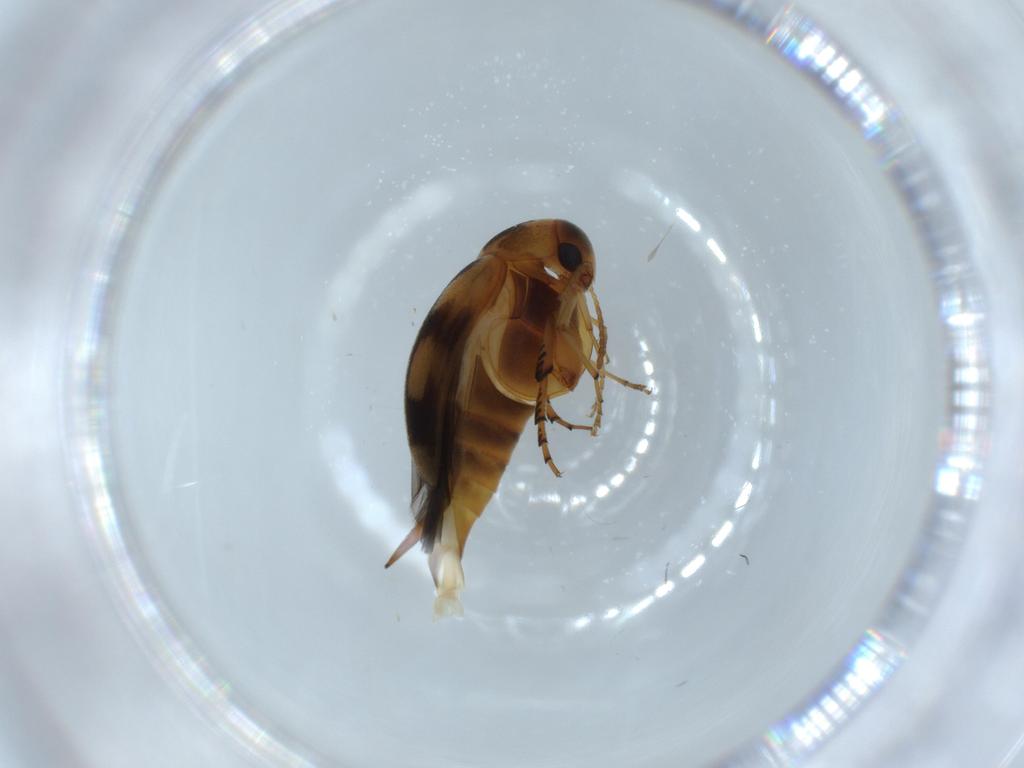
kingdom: Animalia
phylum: Arthropoda
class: Insecta
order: Coleoptera
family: Mordellidae
